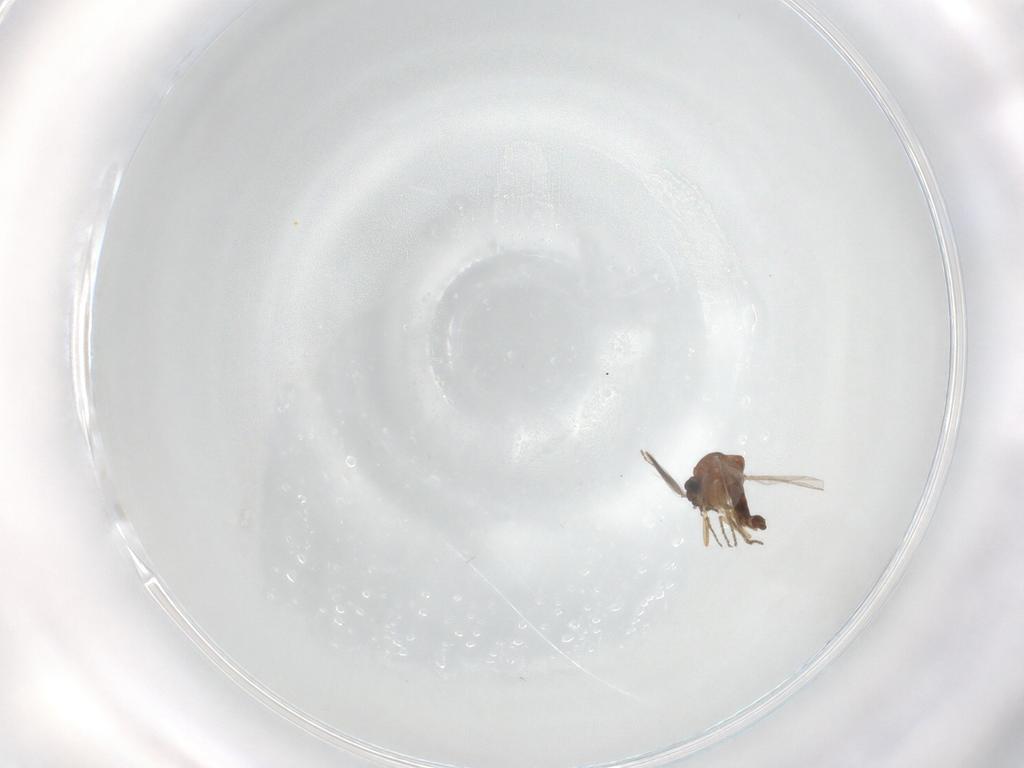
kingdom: Animalia
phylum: Arthropoda
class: Insecta
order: Diptera
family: Ceratopogonidae
